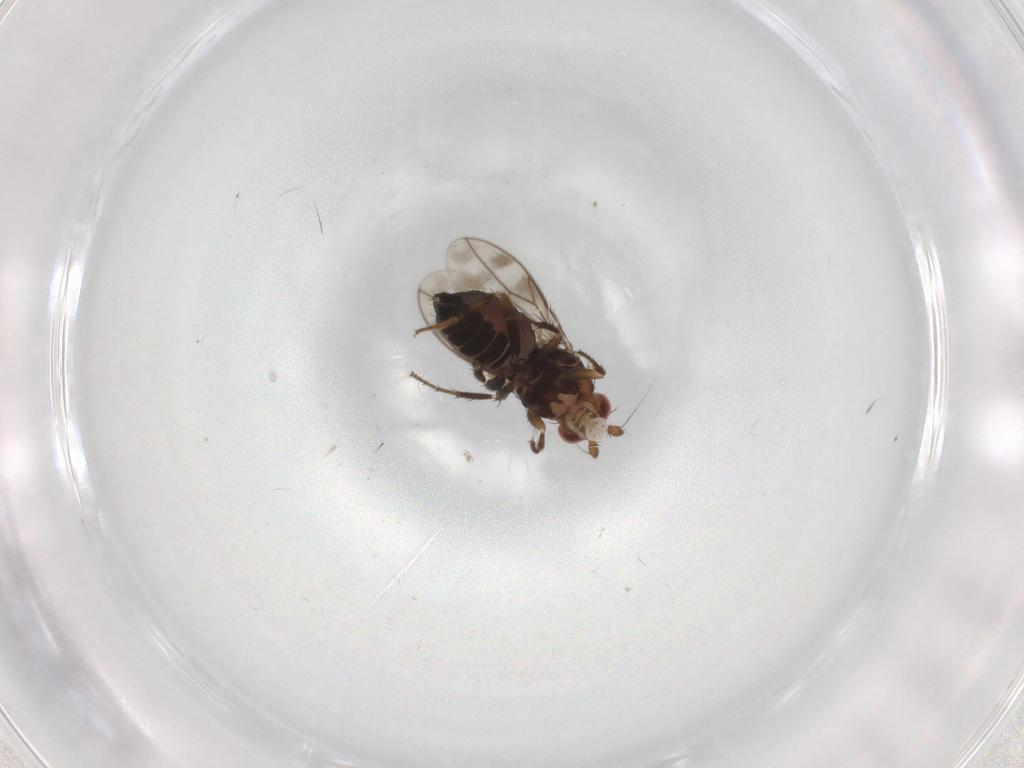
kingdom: Animalia
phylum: Arthropoda
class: Insecta
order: Diptera
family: Sphaeroceridae
